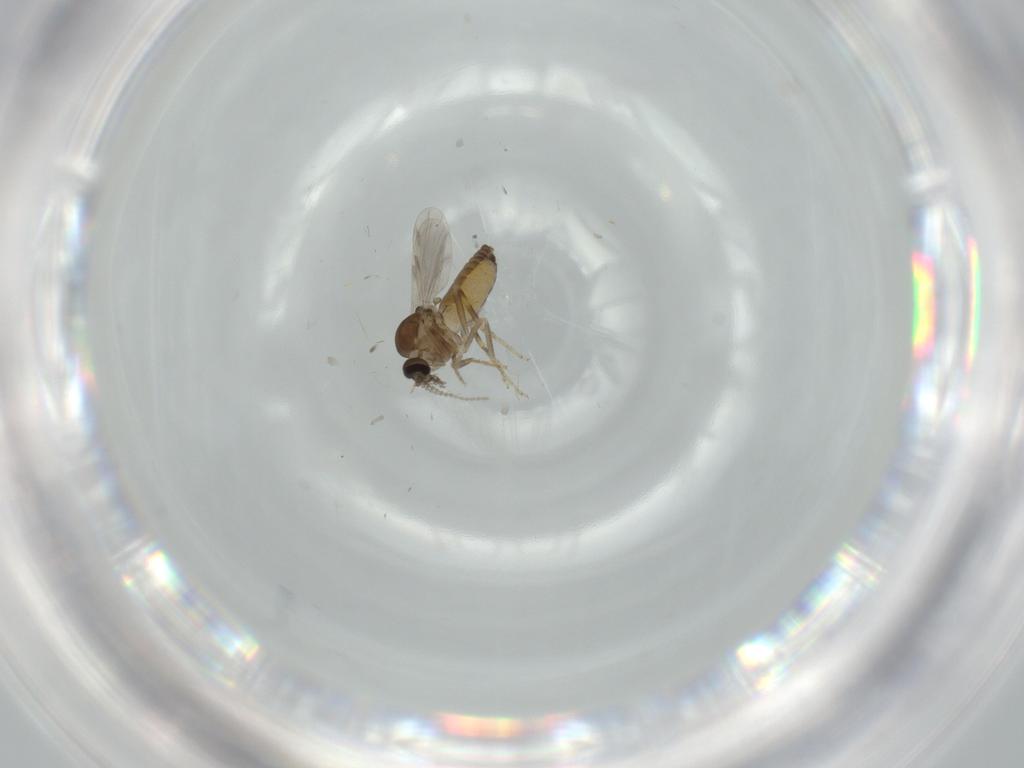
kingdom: Animalia
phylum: Arthropoda
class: Insecta
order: Diptera
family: Ceratopogonidae
